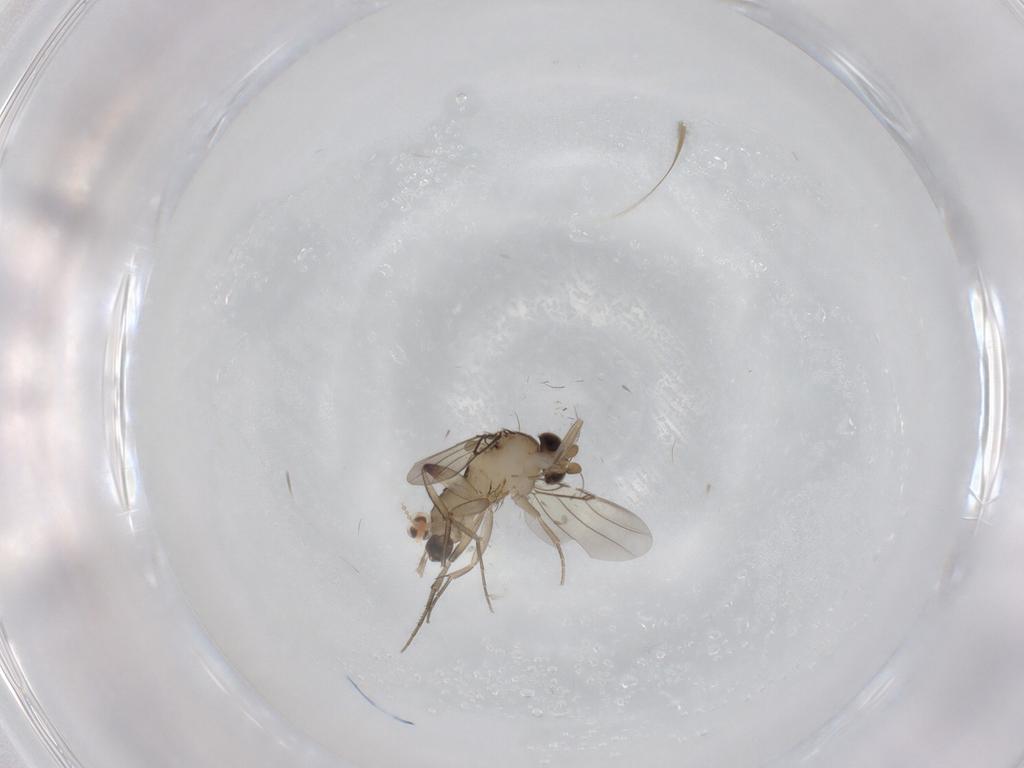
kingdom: Animalia
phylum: Arthropoda
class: Insecta
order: Diptera
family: Phoridae
